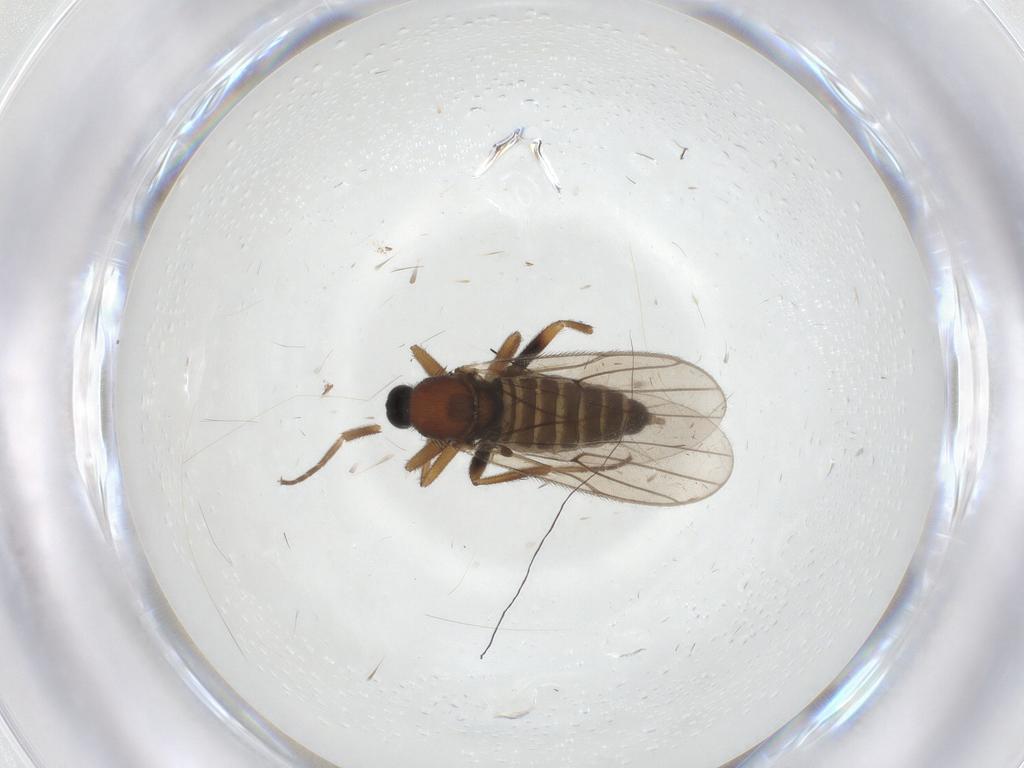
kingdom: Animalia
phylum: Arthropoda
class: Insecta
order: Diptera
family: Hybotidae
